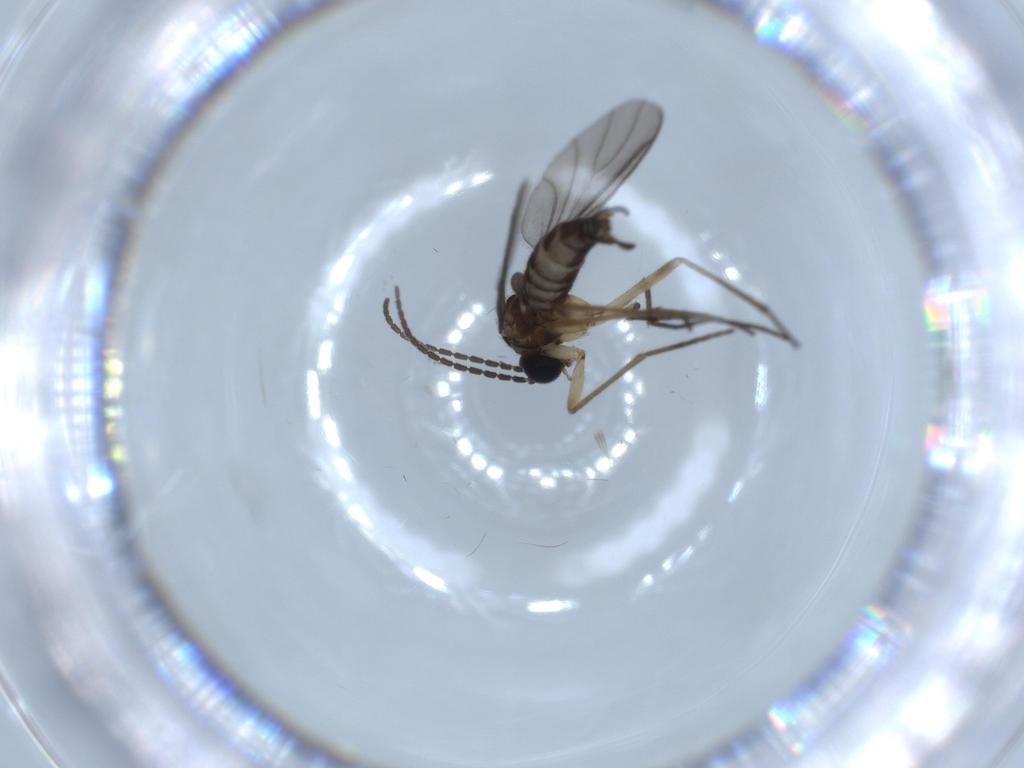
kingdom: Animalia
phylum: Arthropoda
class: Insecta
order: Diptera
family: Sciaridae
